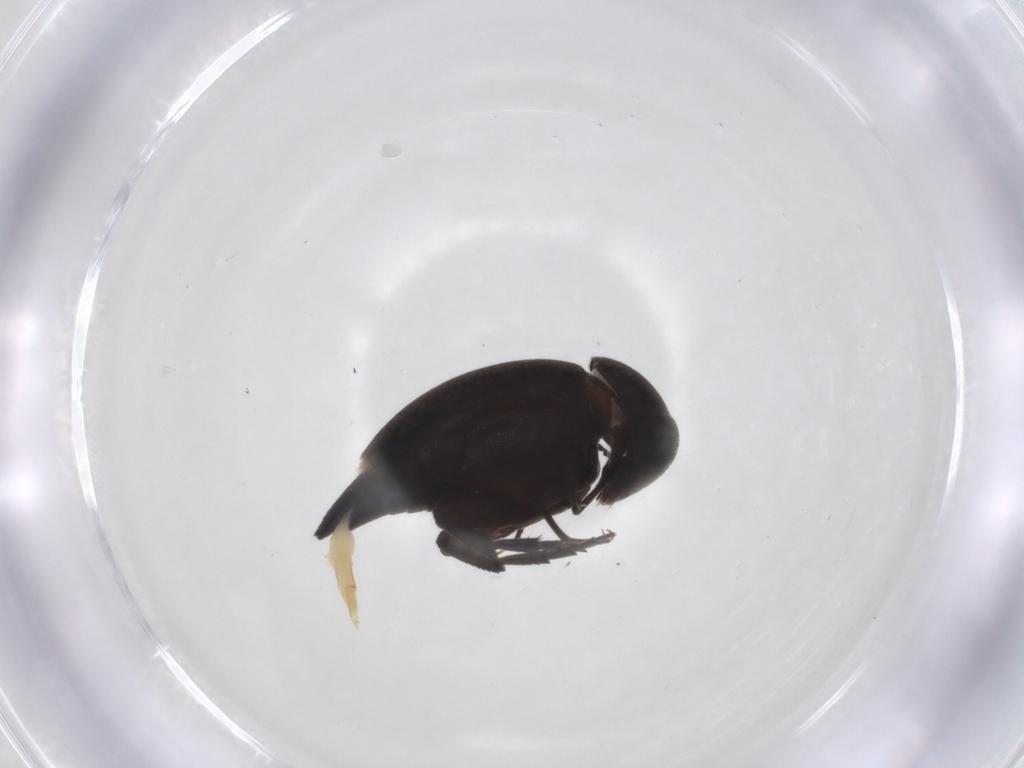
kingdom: Animalia
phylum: Arthropoda
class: Insecta
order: Coleoptera
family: Mordellidae
